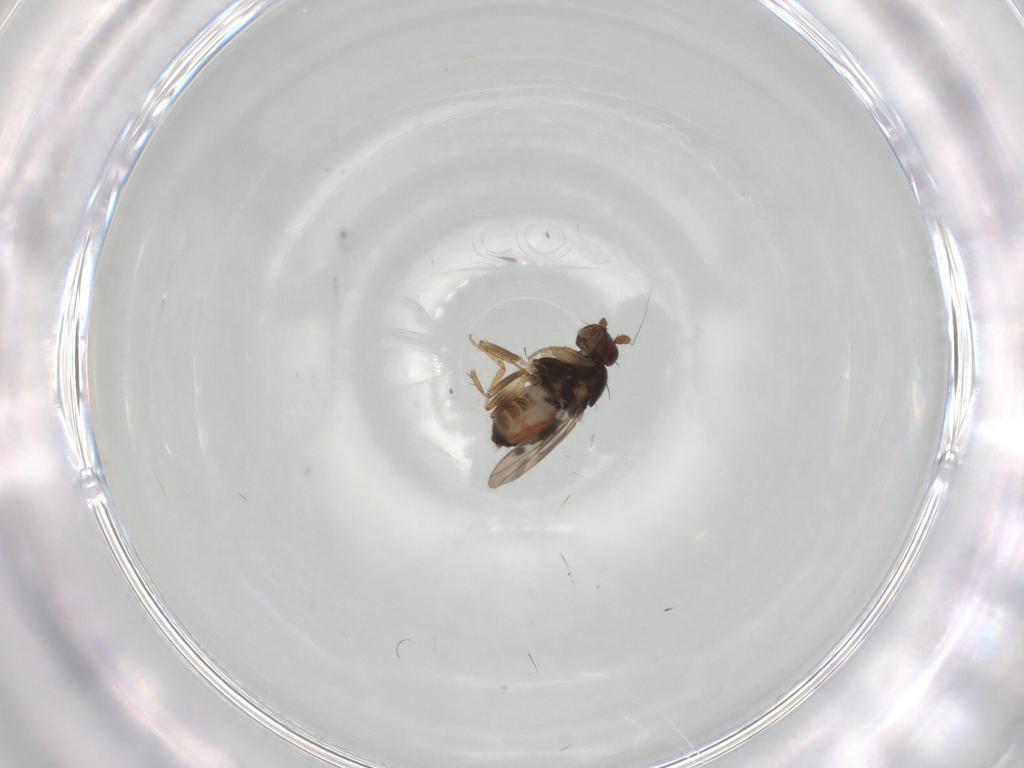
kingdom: Animalia
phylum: Arthropoda
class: Insecta
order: Diptera
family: Sphaeroceridae
